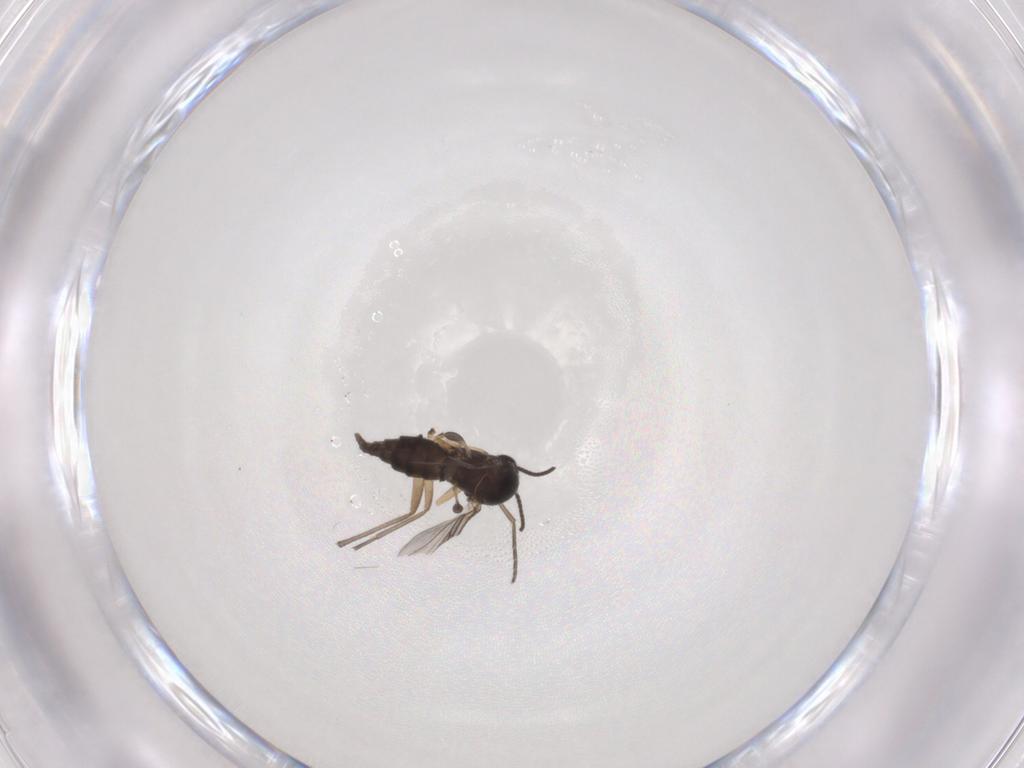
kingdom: Animalia
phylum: Arthropoda
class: Insecta
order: Diptera
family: Sciaridae
